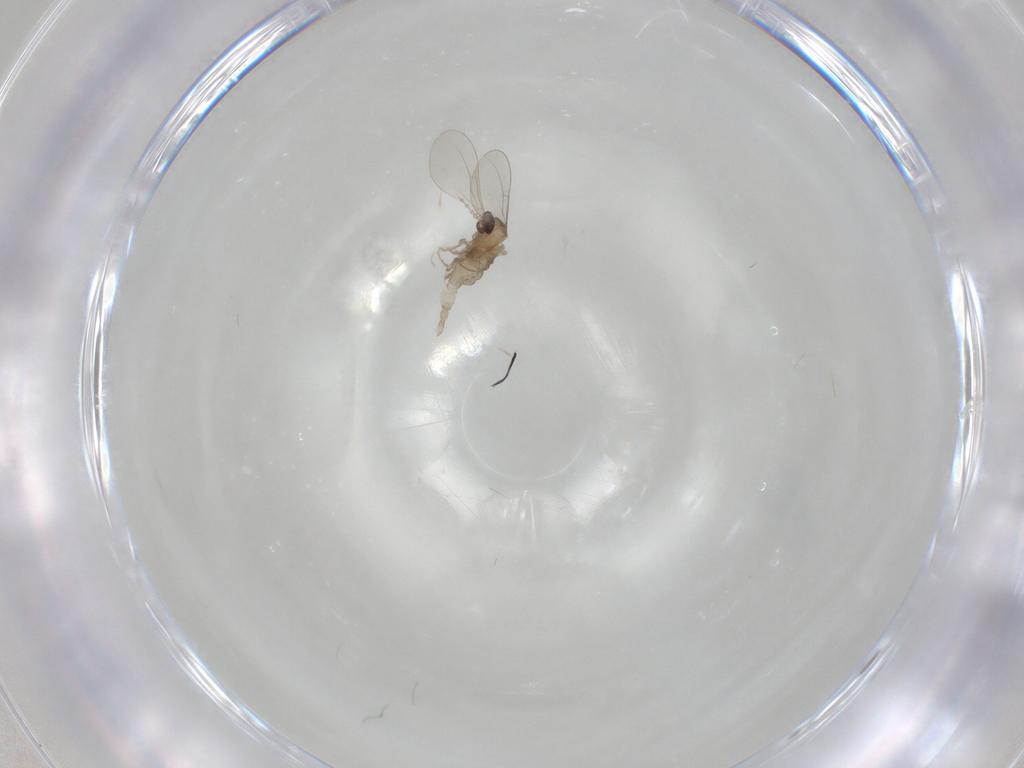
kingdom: Animalia
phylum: Arthropoda
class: Insecta
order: Diptera
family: Cecidomyiidae
